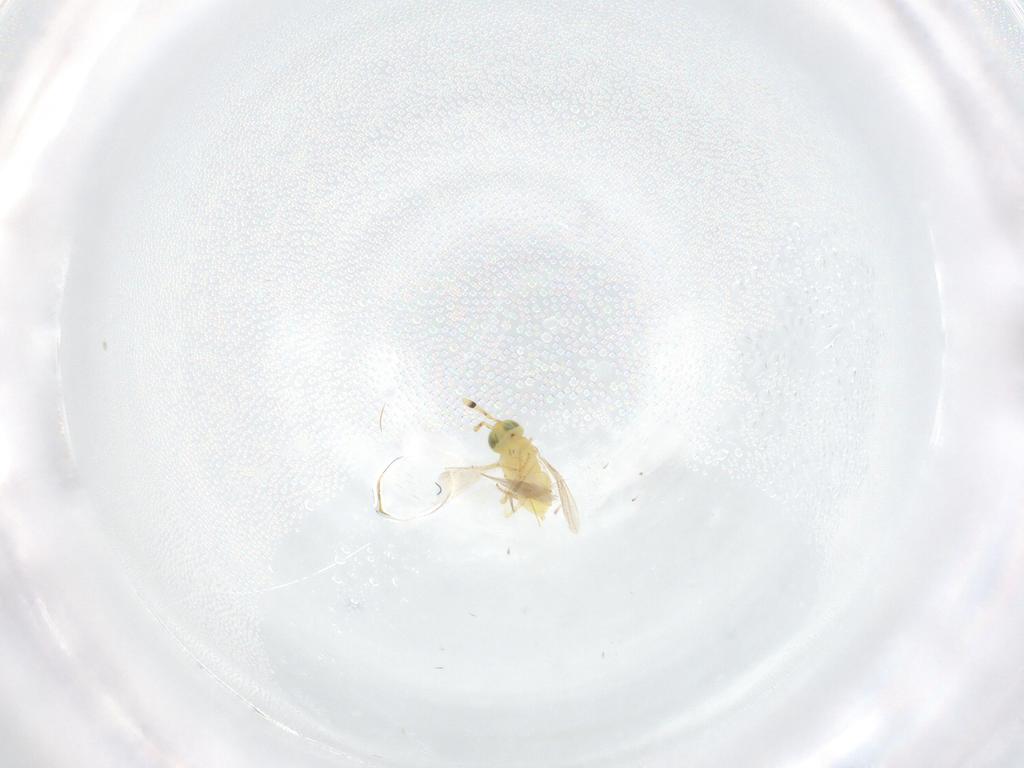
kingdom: Animalia
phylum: Arthropoda
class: Insecta
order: Hymenoptera
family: Encyrtidae
